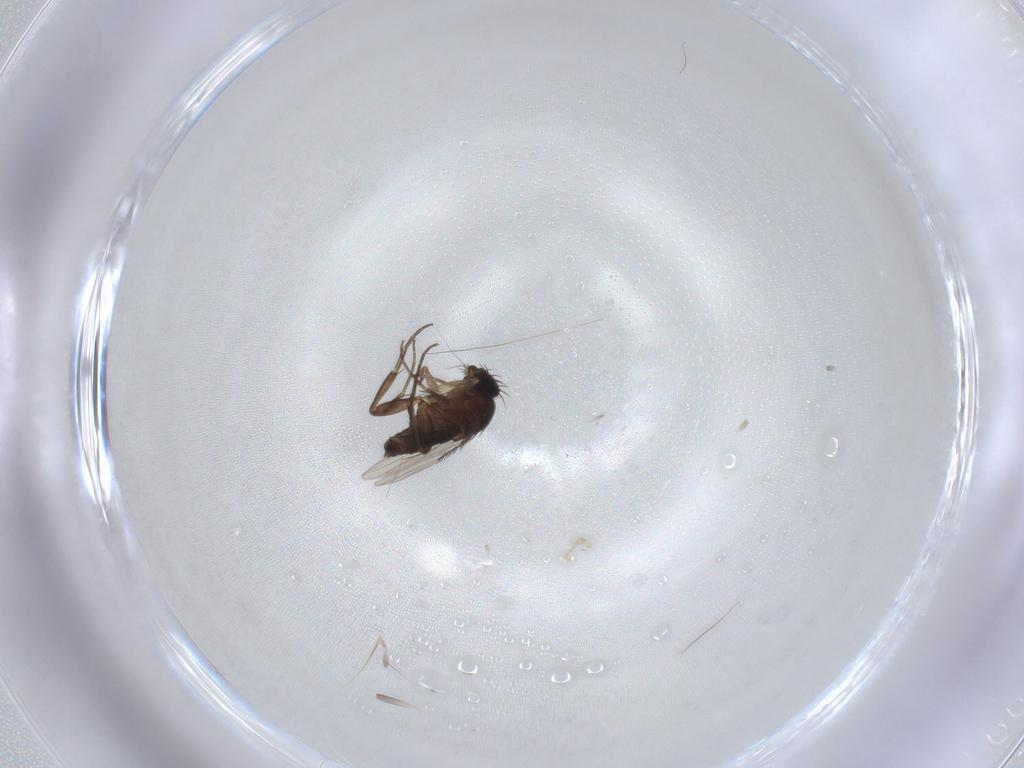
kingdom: Animalia
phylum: Arthropoda
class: Insecta
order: Diptera
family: Phoridae
